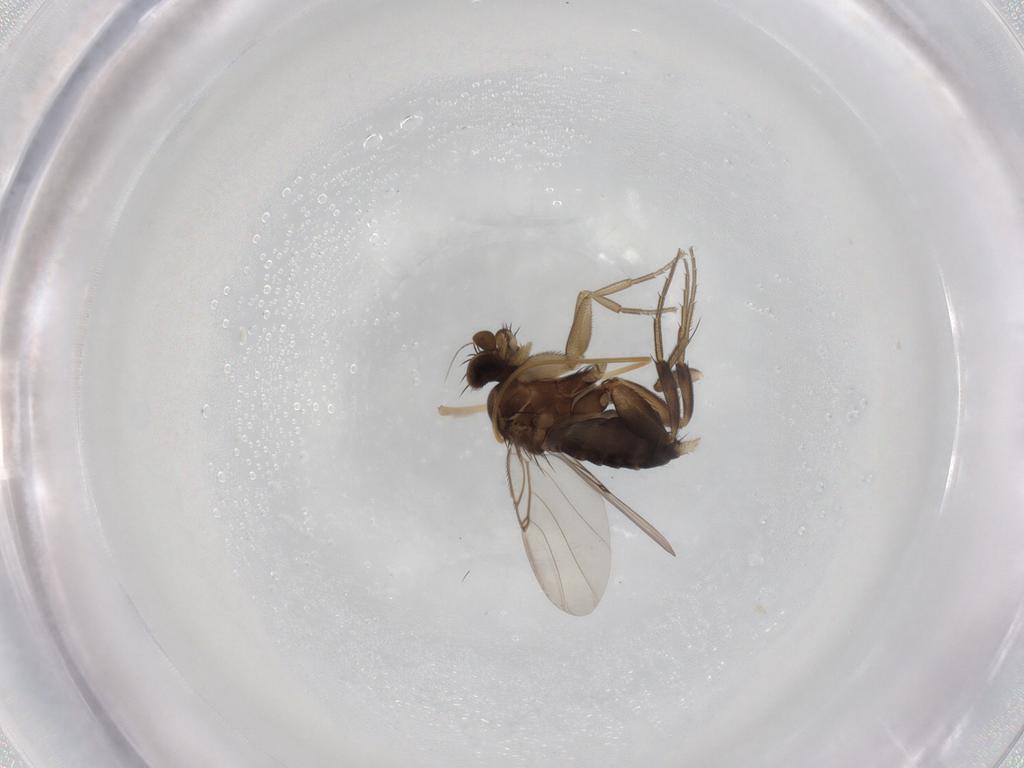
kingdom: Animalia
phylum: Arthropoda
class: Insecta
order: Diptera
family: Phoridae
